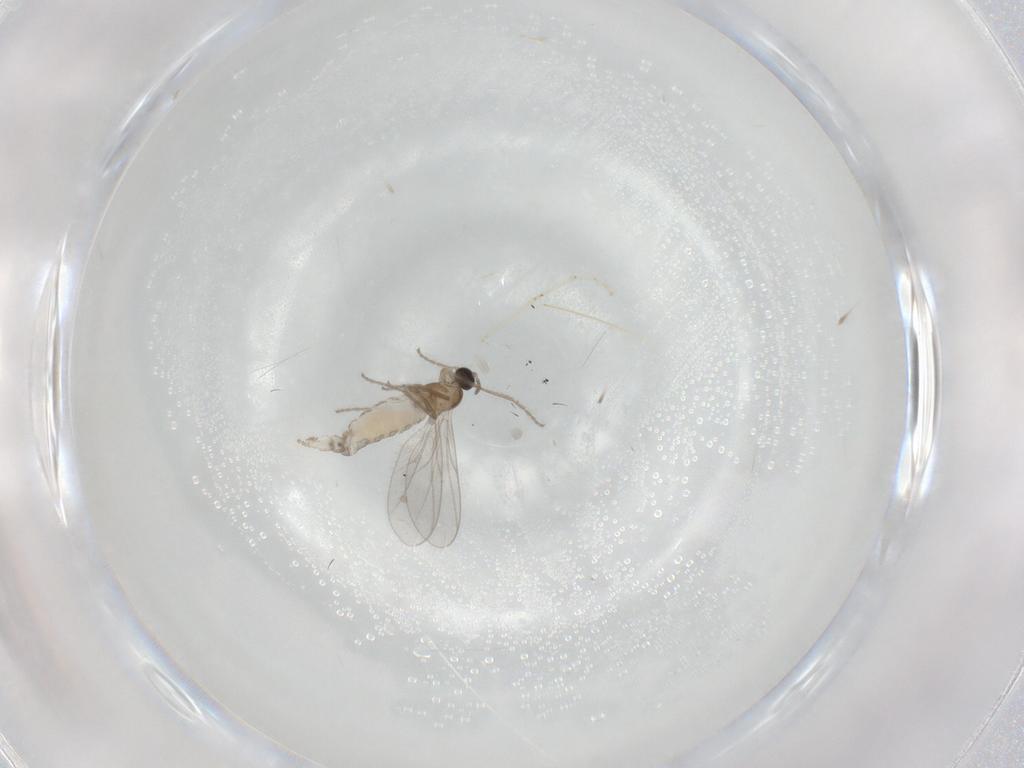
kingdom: Animalia
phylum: Arthropoda
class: Insecta
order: Diptera
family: Cecidomyiidae
